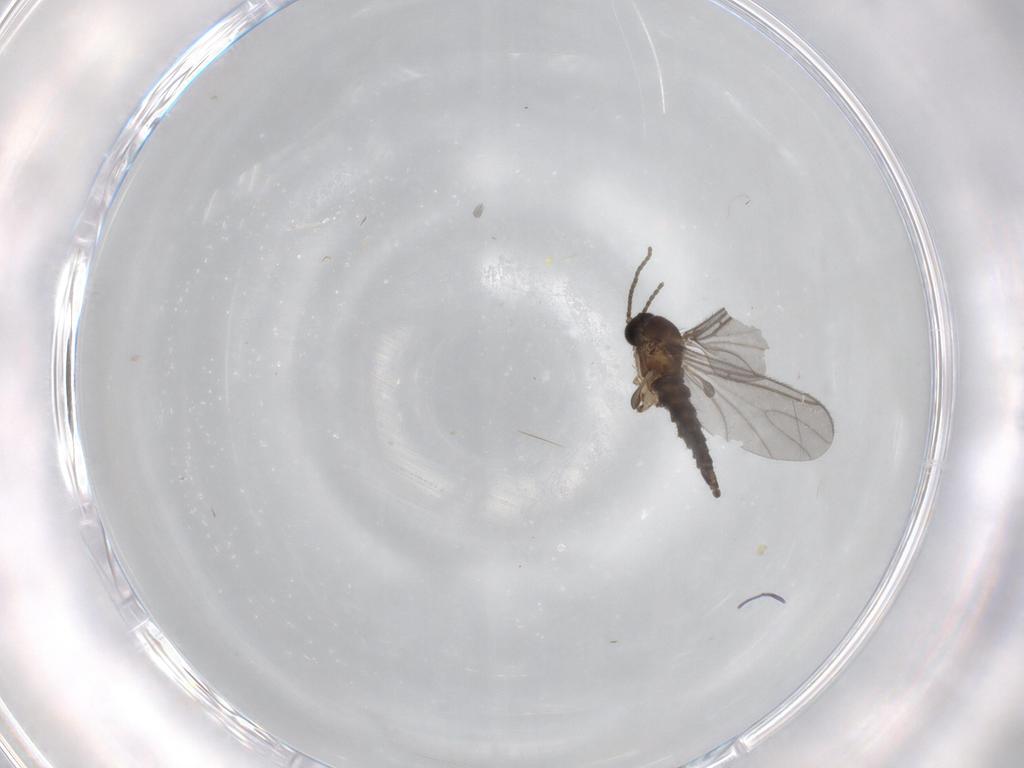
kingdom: Animalia
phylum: Arthropoda
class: Insecta
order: Diptera
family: Sciaridae
